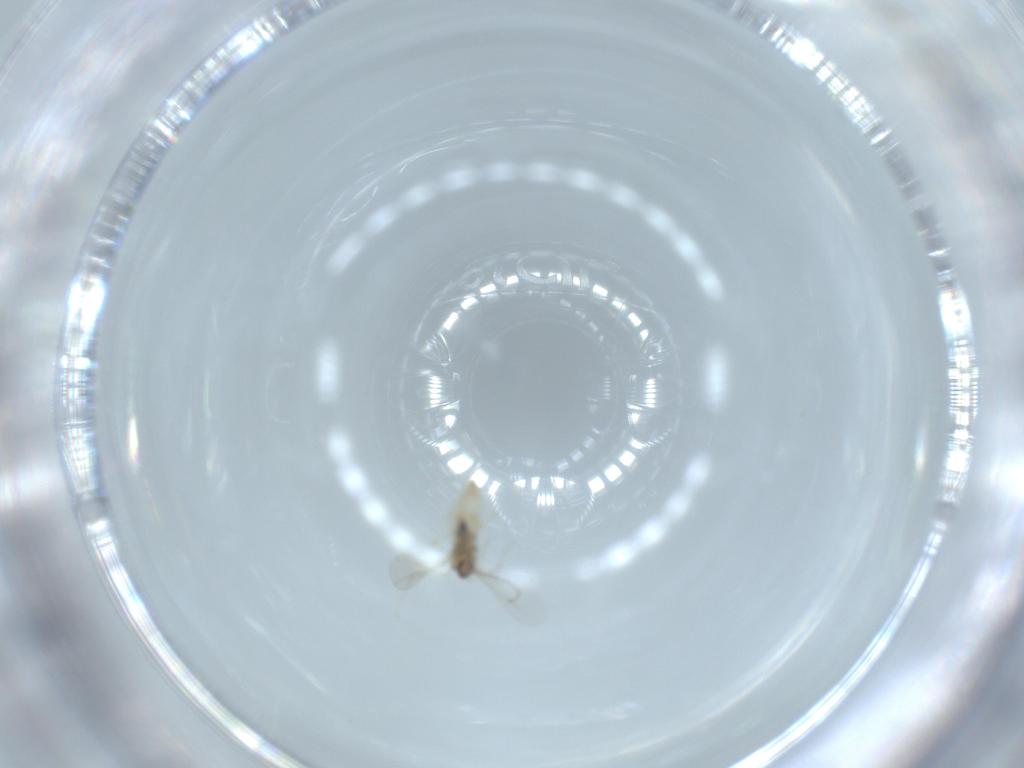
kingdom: Animalia
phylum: Arthropoda
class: Insecta
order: Diptera
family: Cecidomyiidae
